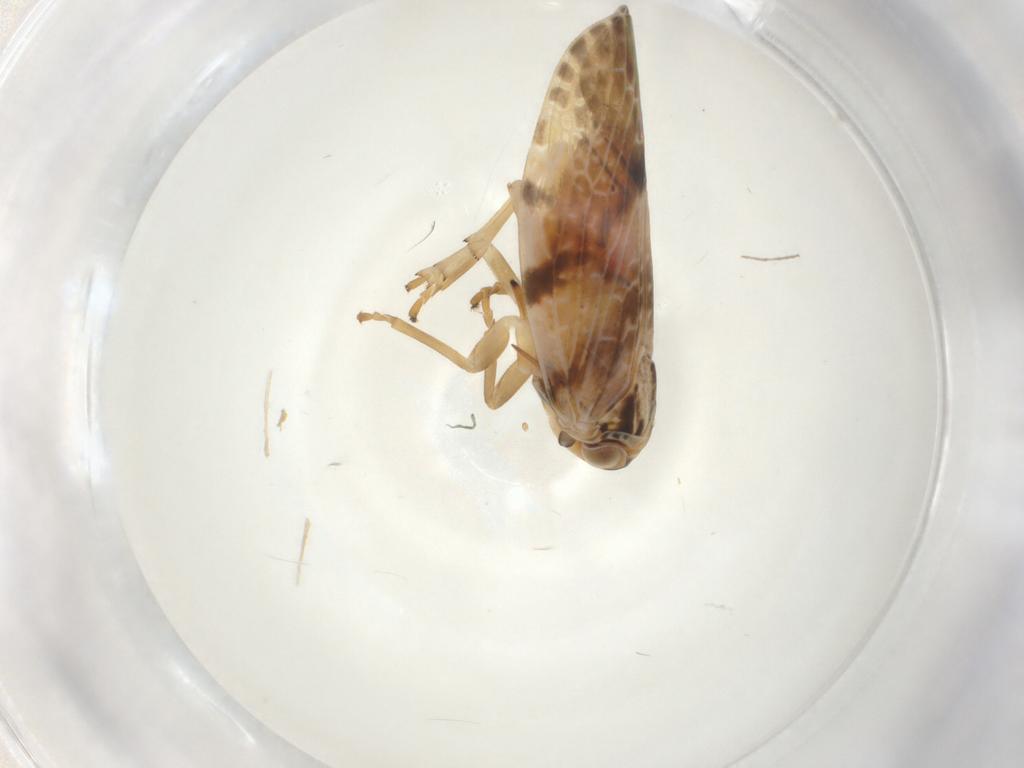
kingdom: Animalia
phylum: Arthropoda
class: Insecta
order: Hemiptera
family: Achilidae
